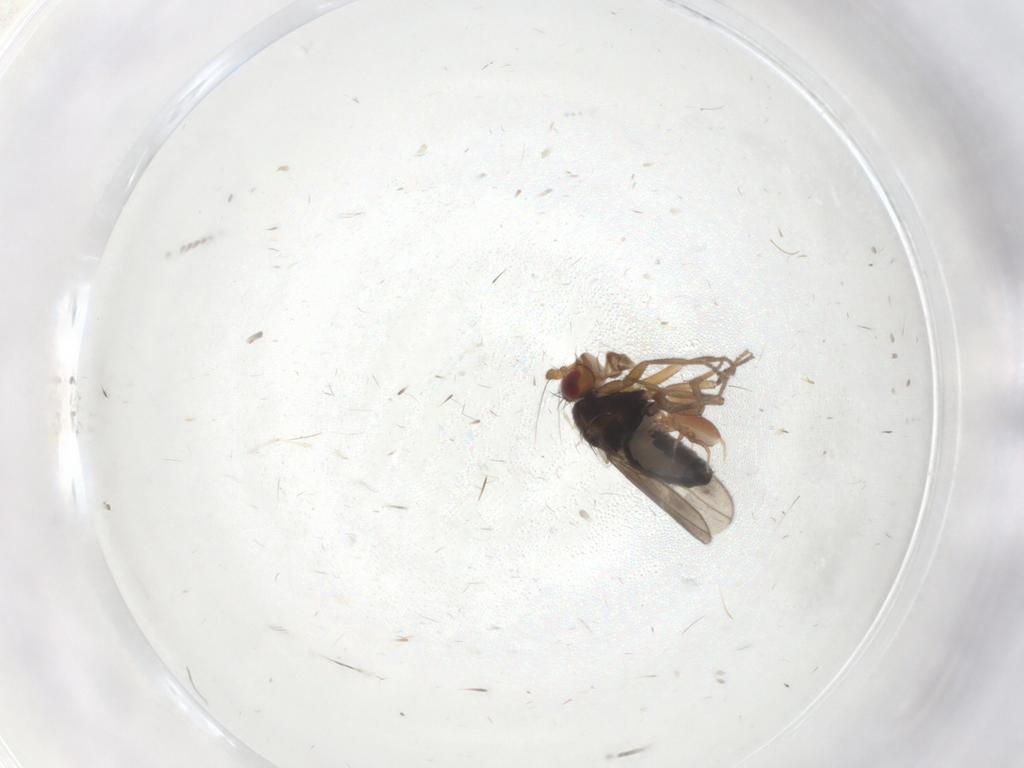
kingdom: Animalia
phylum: Arthropoda
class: Insecta
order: Diptera
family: Sphaeroceridae
